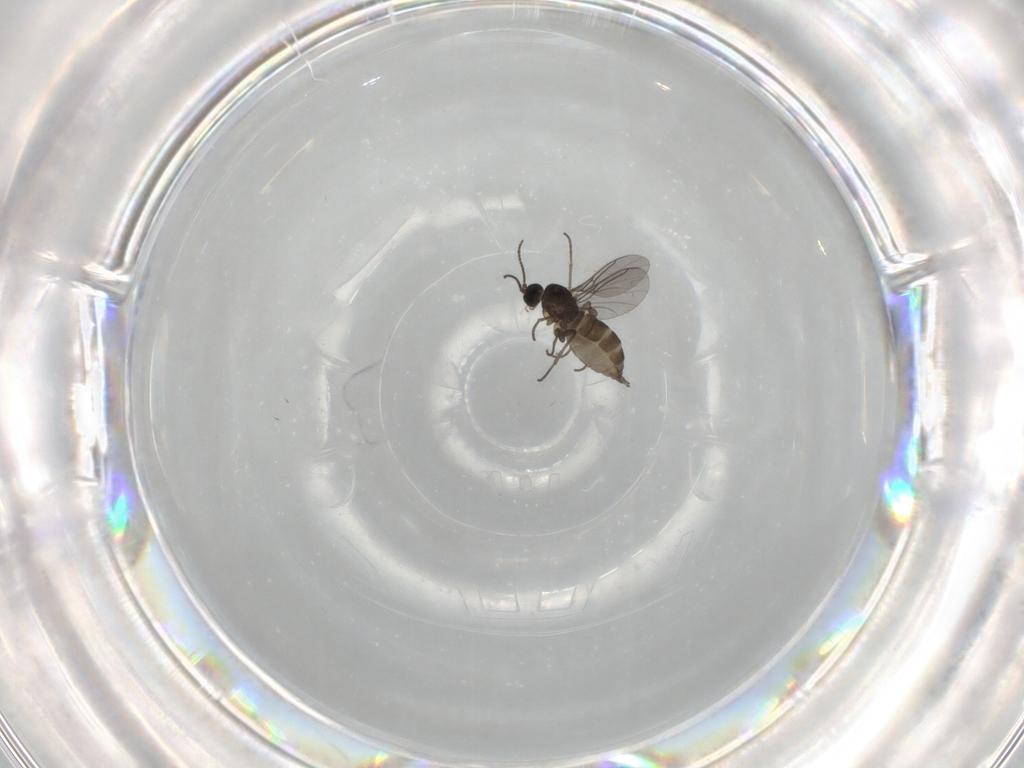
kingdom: Animalia
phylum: Arthropoda
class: Insecta
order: Diptera
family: Sciaridae
